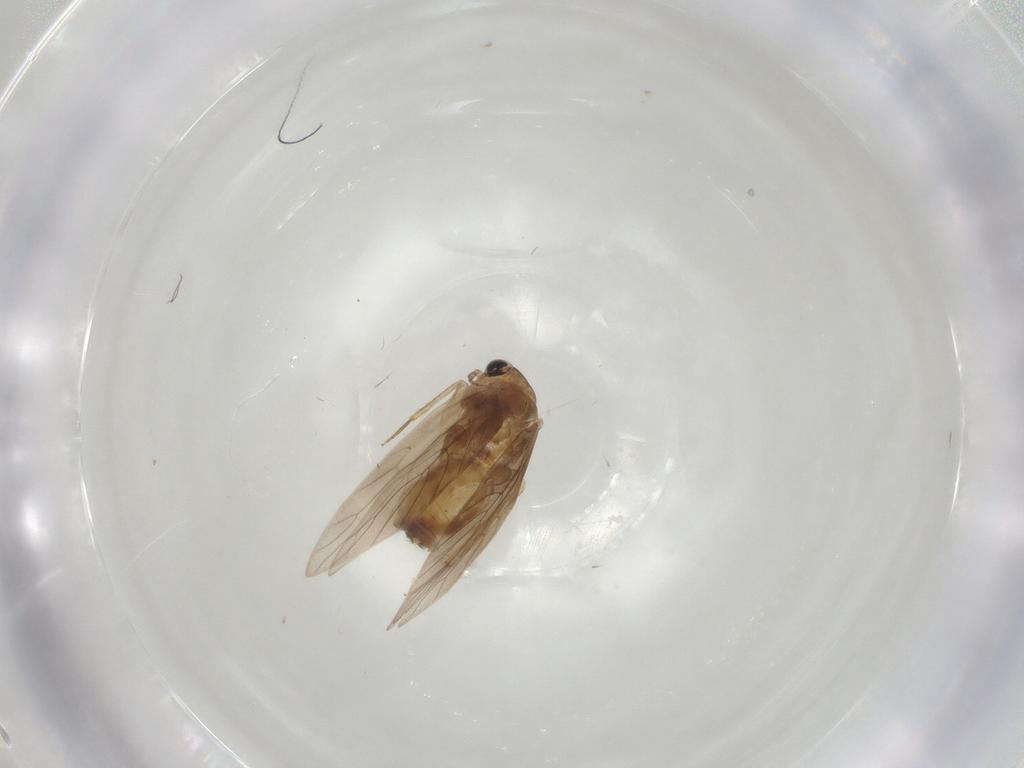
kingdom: Animalia
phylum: Arthropoda
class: Insecta
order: Psocodea
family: Lepidopsocidae
